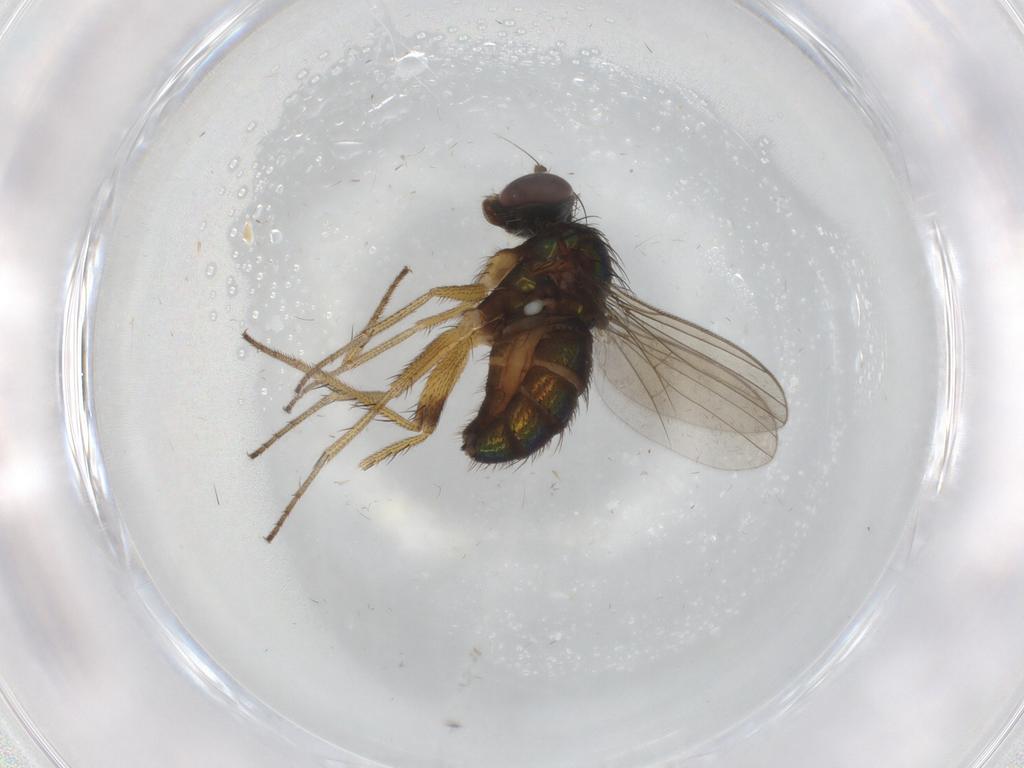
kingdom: Animalia
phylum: Arthropoda
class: Insecta
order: Diptera
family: Dolichopodidae
